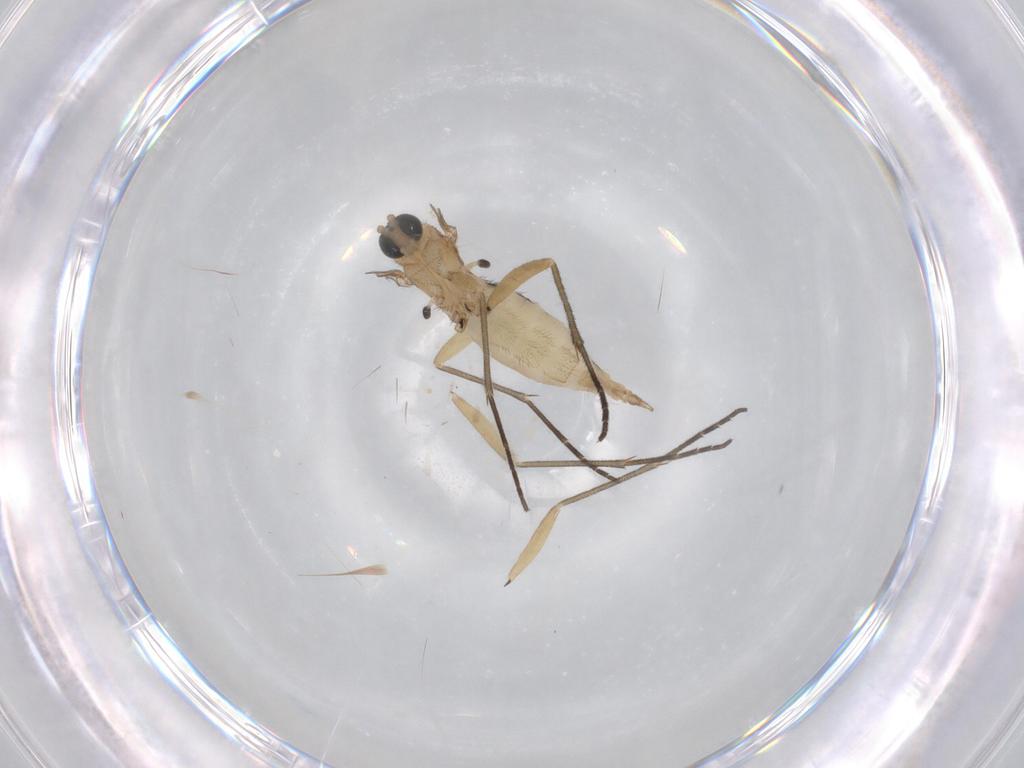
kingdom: Animalia
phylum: Arthropoda
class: Insecta
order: Diptera
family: Sciaridae
